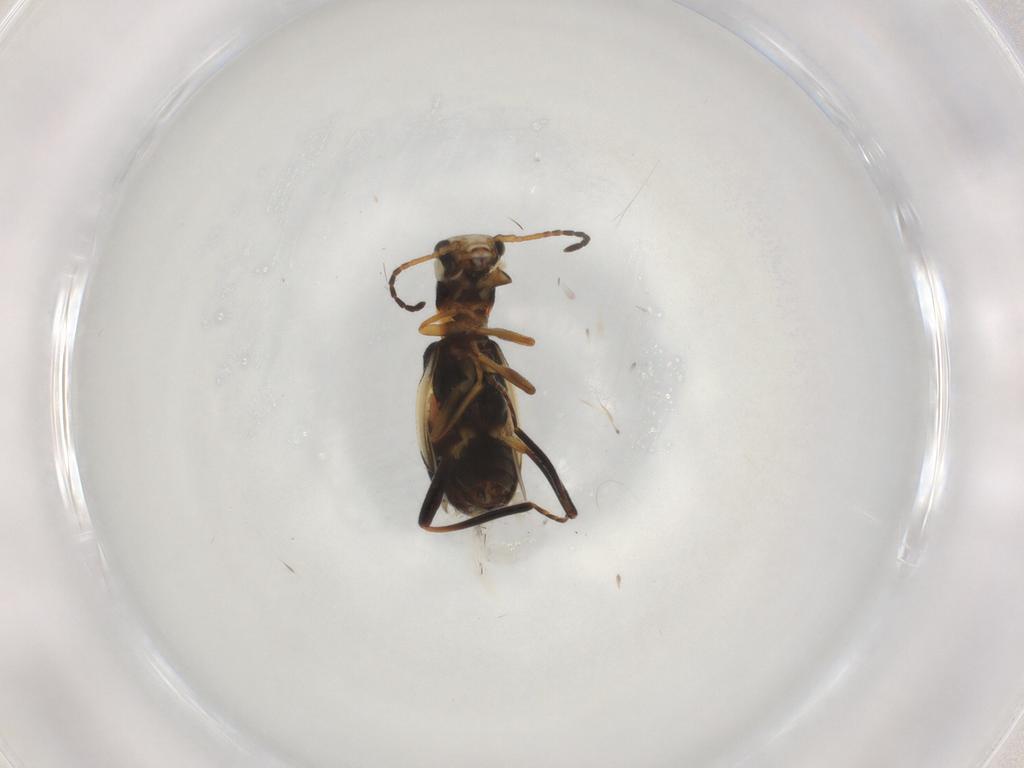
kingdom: Animalia
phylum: Arthropoda
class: Insecta
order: Coleoptera
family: Melyridae
